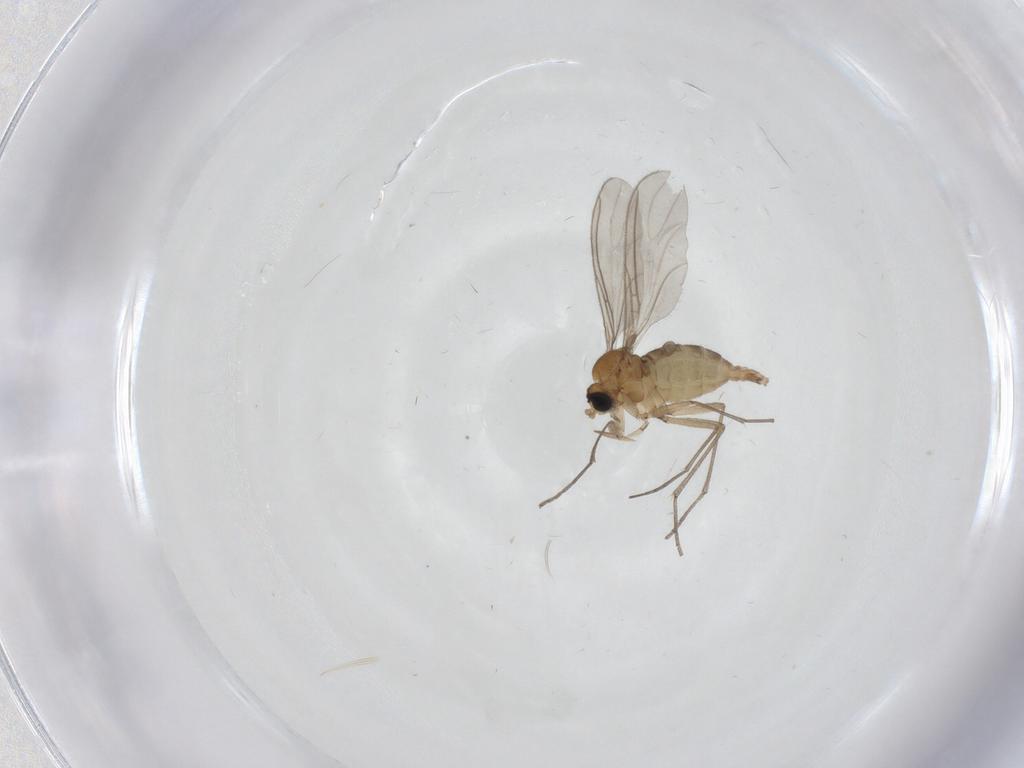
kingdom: Animalia
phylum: Arthropoda
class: Insecta
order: Diptera
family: Sciaridae
